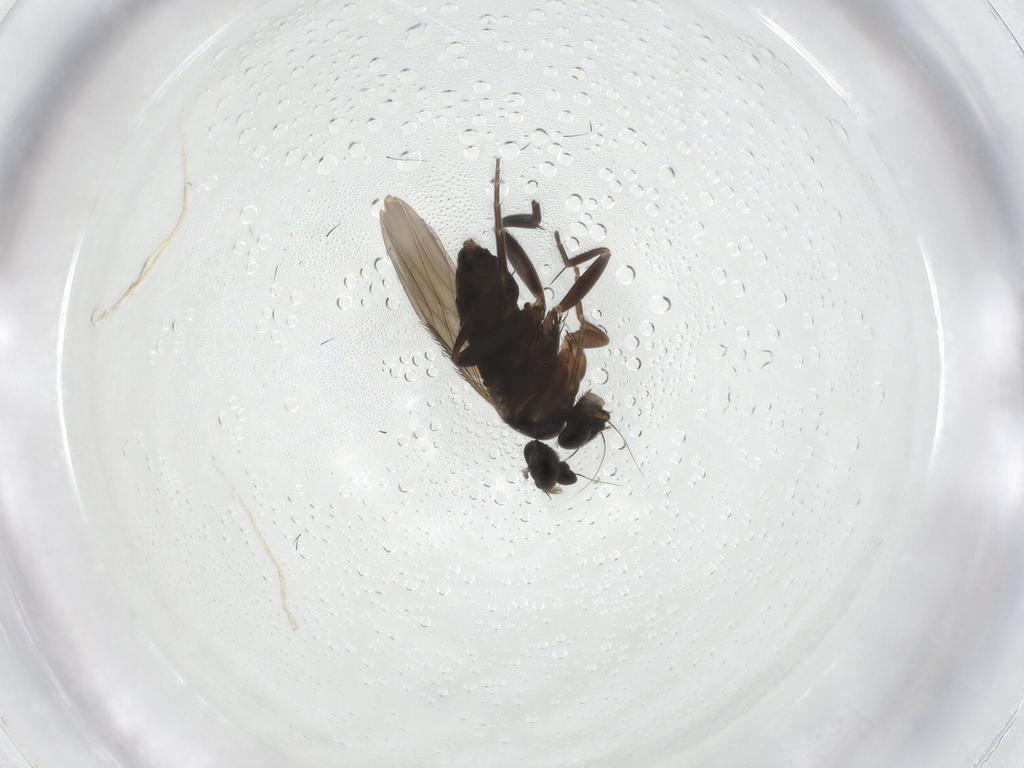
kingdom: Animalia
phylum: Arthropoda
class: Insecta
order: Diptera
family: Phoridae
